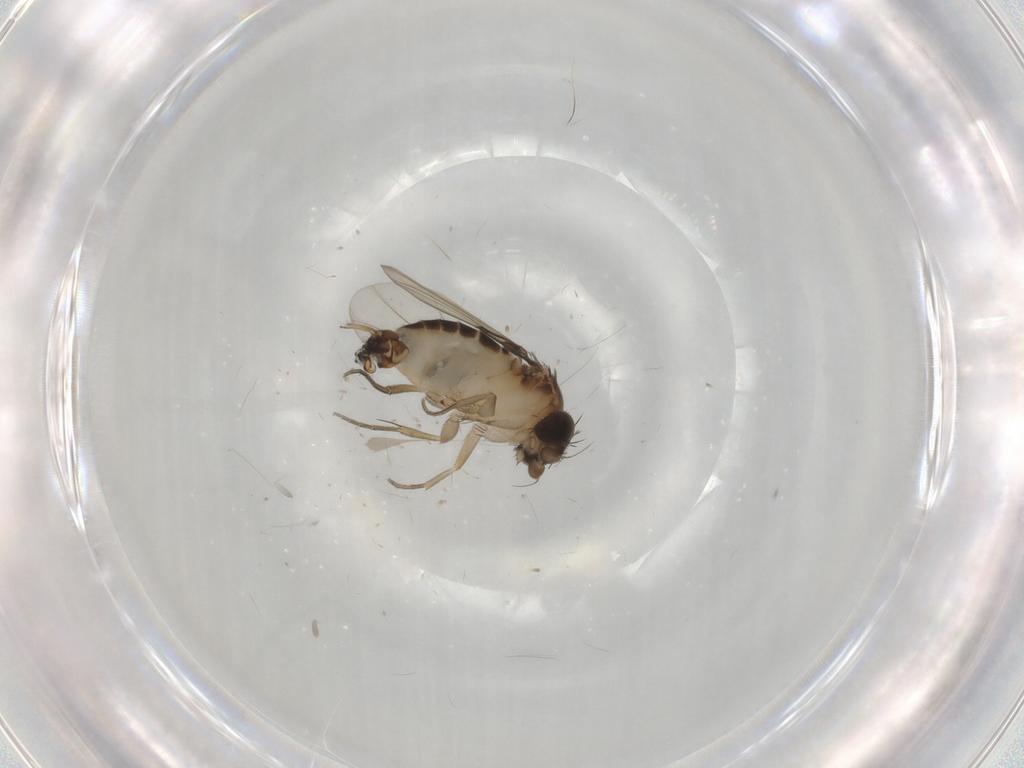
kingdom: Animalia
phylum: Arthropoda
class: Insecta
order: Diptera
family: Phoridae
